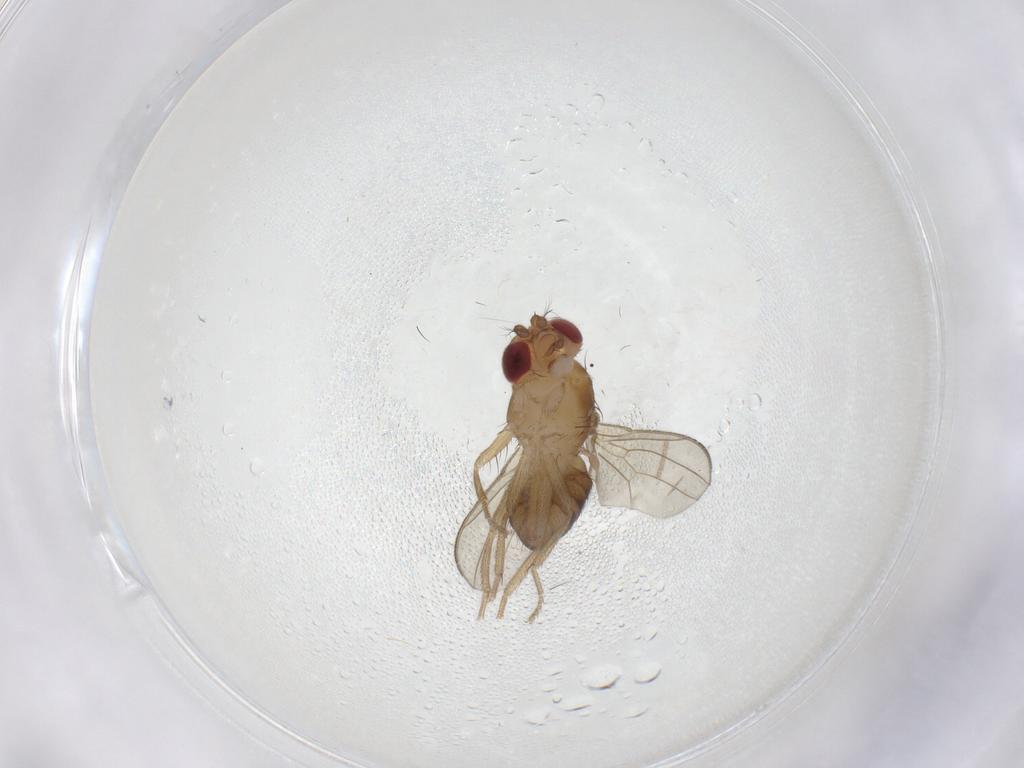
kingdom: Animalia
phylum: Arthropoda
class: Insecta
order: Diptera
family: Drosophilidae
